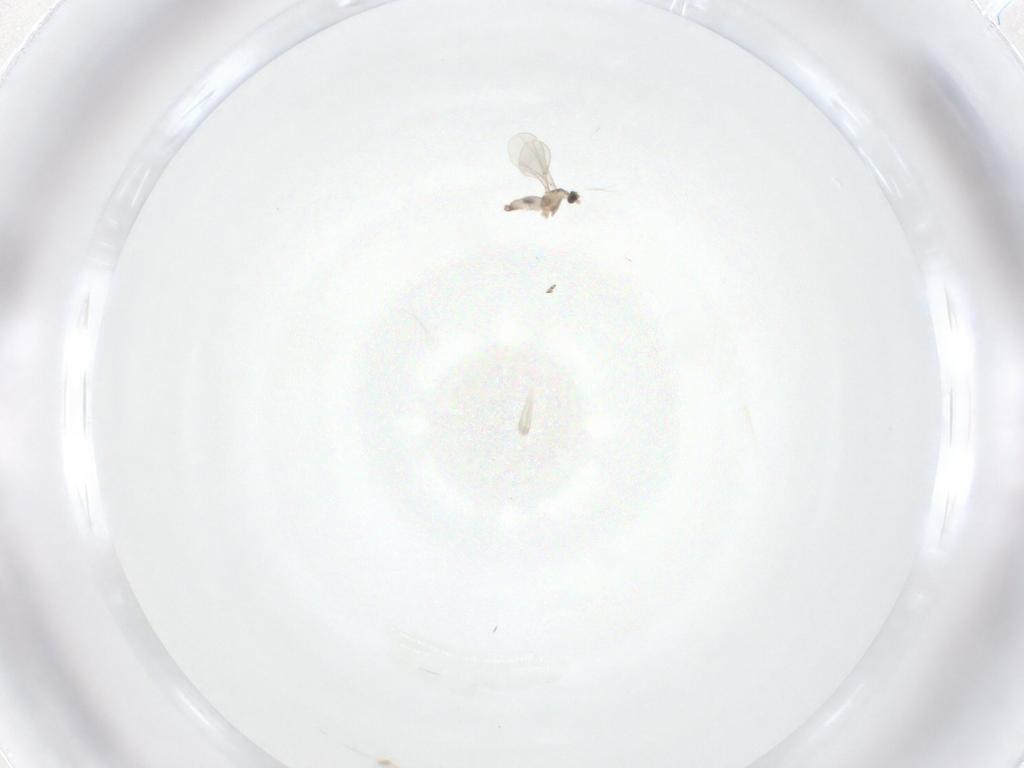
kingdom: Animalia
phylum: Arthropoda
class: Insecta
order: Diptera
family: Cecidomyiidae
